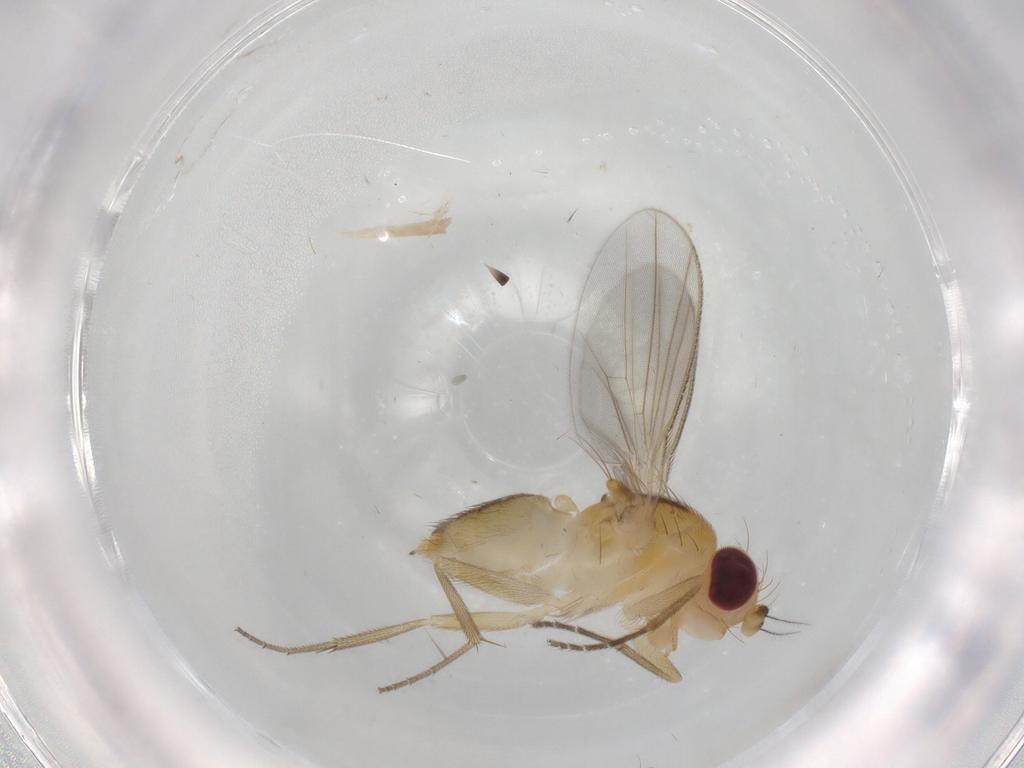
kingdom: Animalia
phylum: Arthropoda
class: Insecta
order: Diptera
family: Clusiidae
